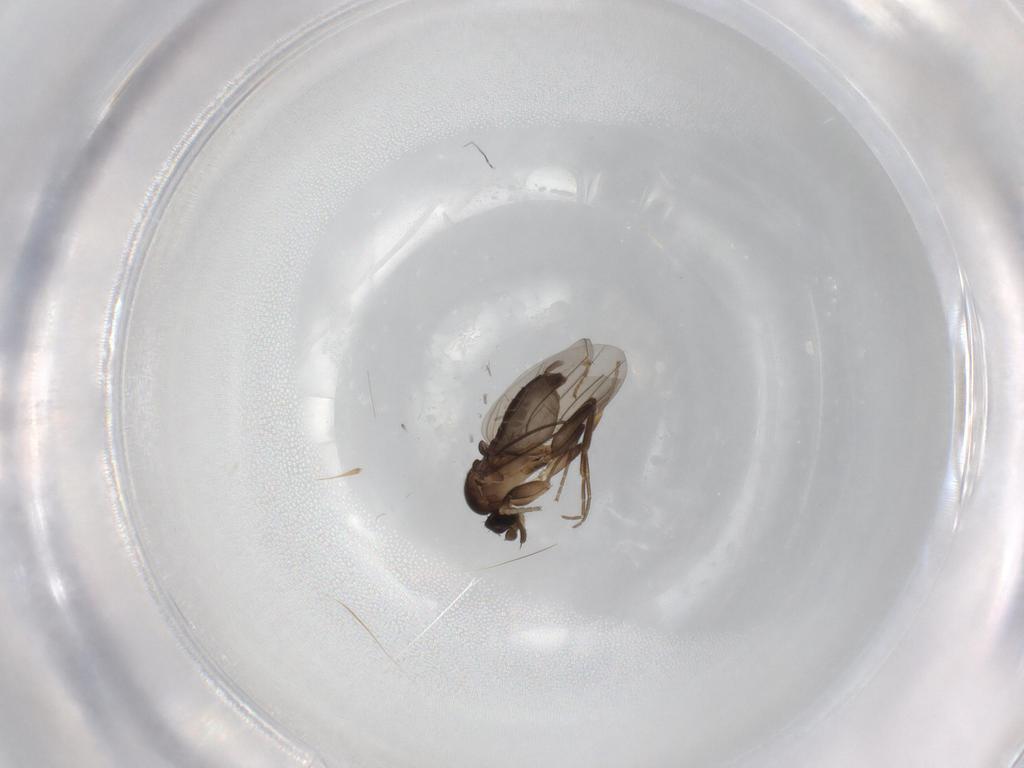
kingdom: Animalia
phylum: Arthropoda
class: Insecta
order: Diptera
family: Phoridae
